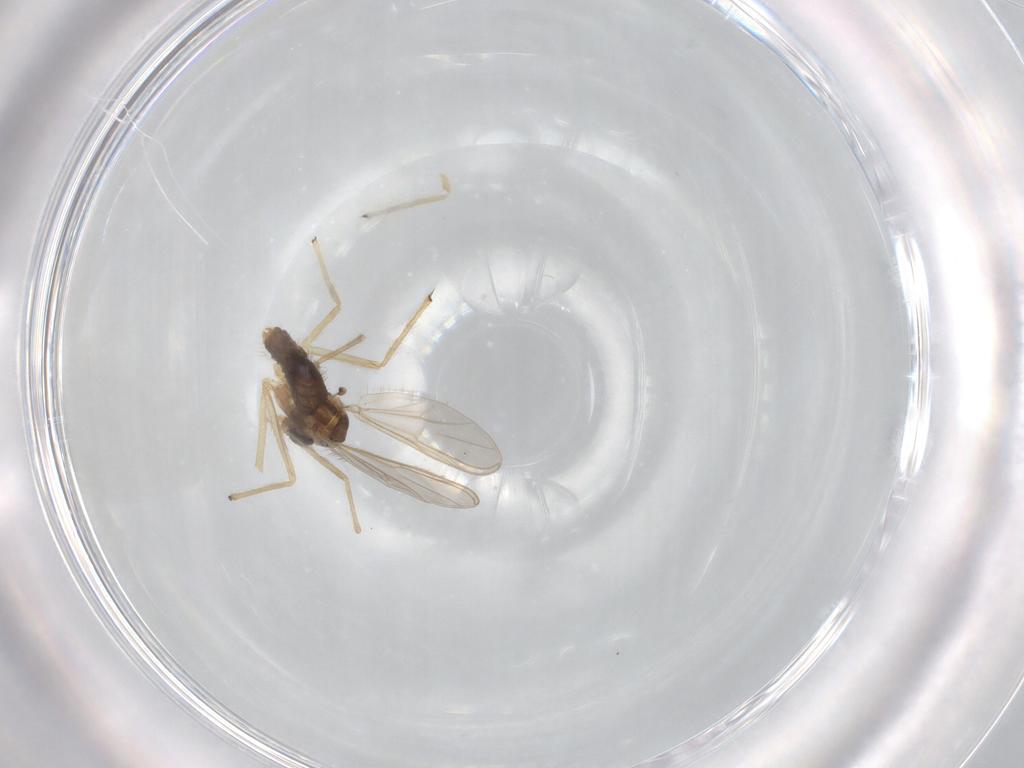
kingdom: Animalia
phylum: Arthropoda
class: Insecta
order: Diptera
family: Chironomidae
